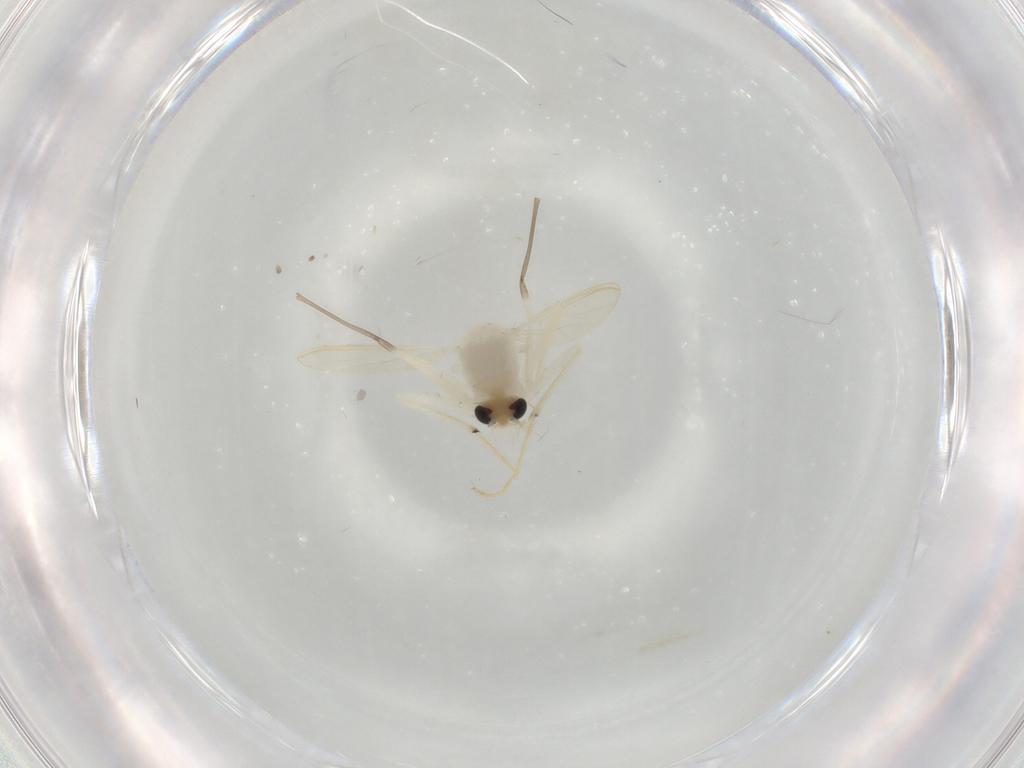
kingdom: Animalia
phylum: Arthropoda
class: Insecta
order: Diptera
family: Chironomidae
